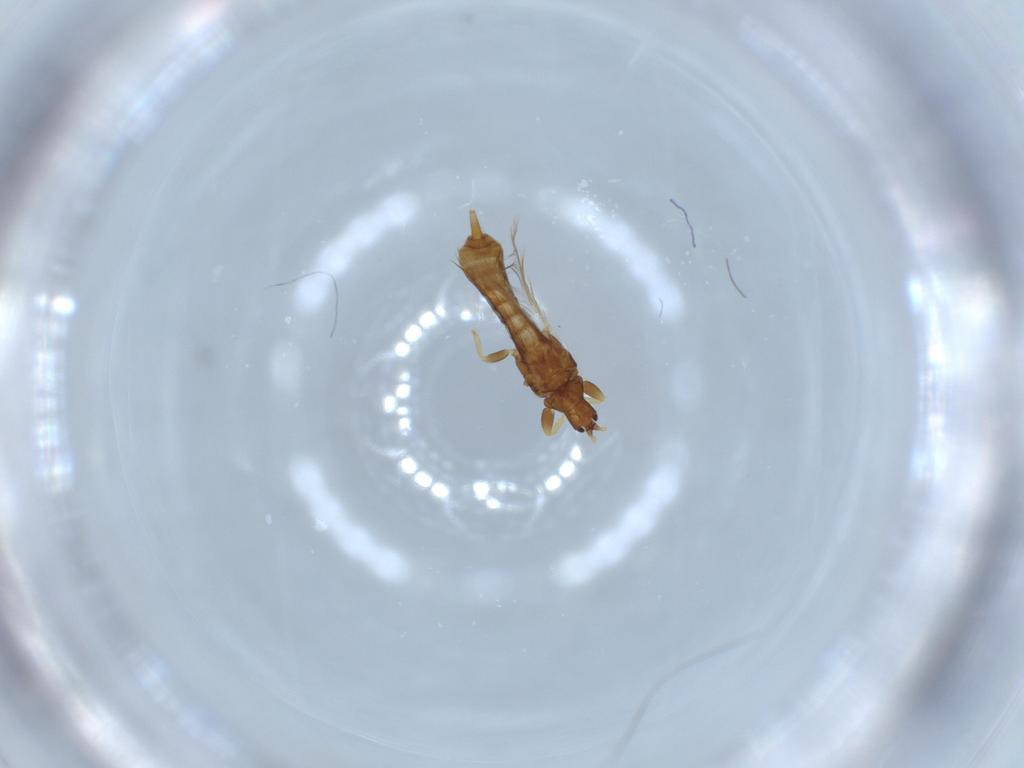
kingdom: Animalia
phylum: Arthropoda
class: Insecta
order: Thysanoptera
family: Phlaeothripidae
